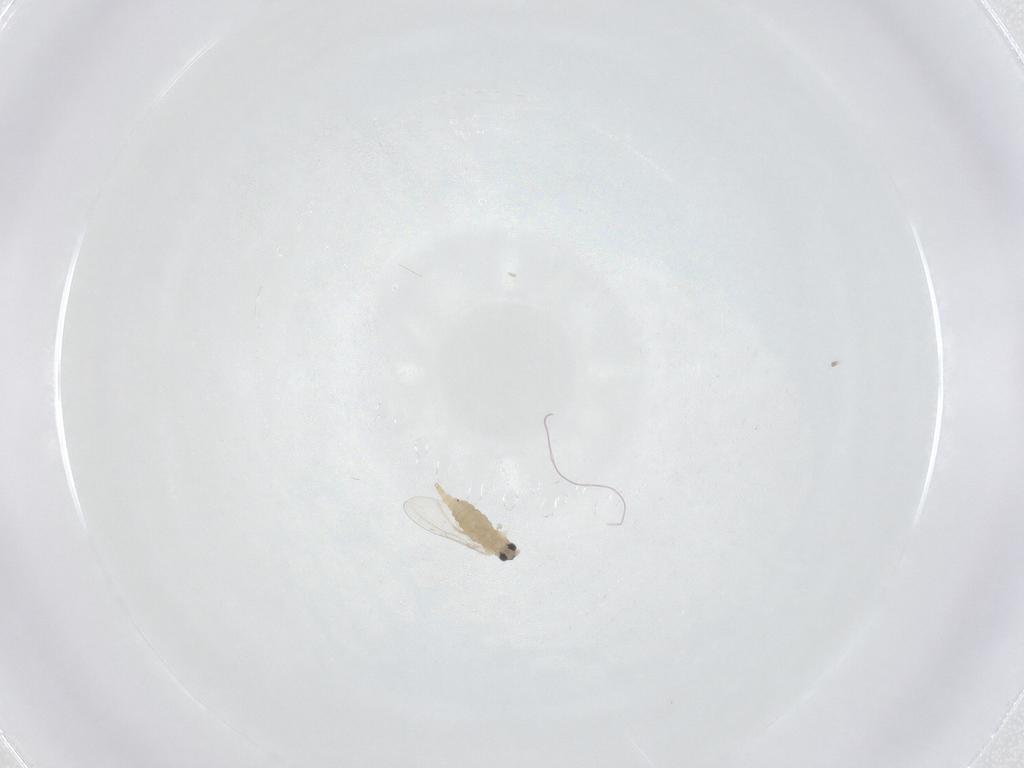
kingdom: Animalia
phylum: Arthropoda
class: Insecta
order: Diptera
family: Cecidomyiidae
